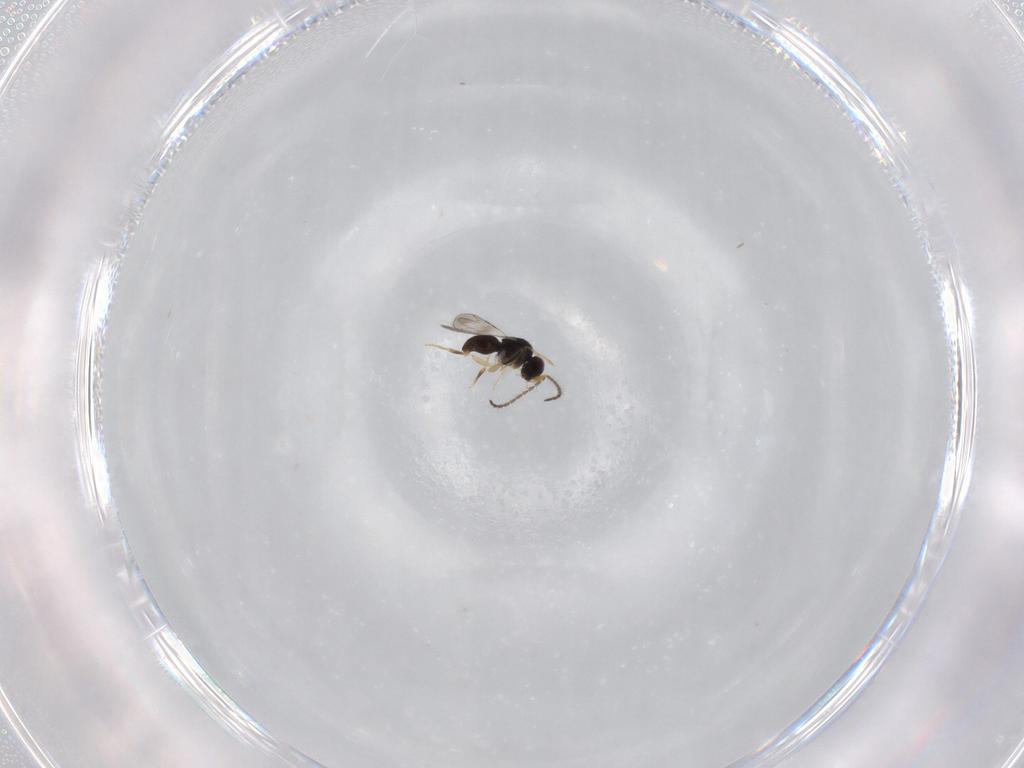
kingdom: Animalia
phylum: Arthropoda
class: Insecta
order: Hymenoptera
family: Ceraphronidae
